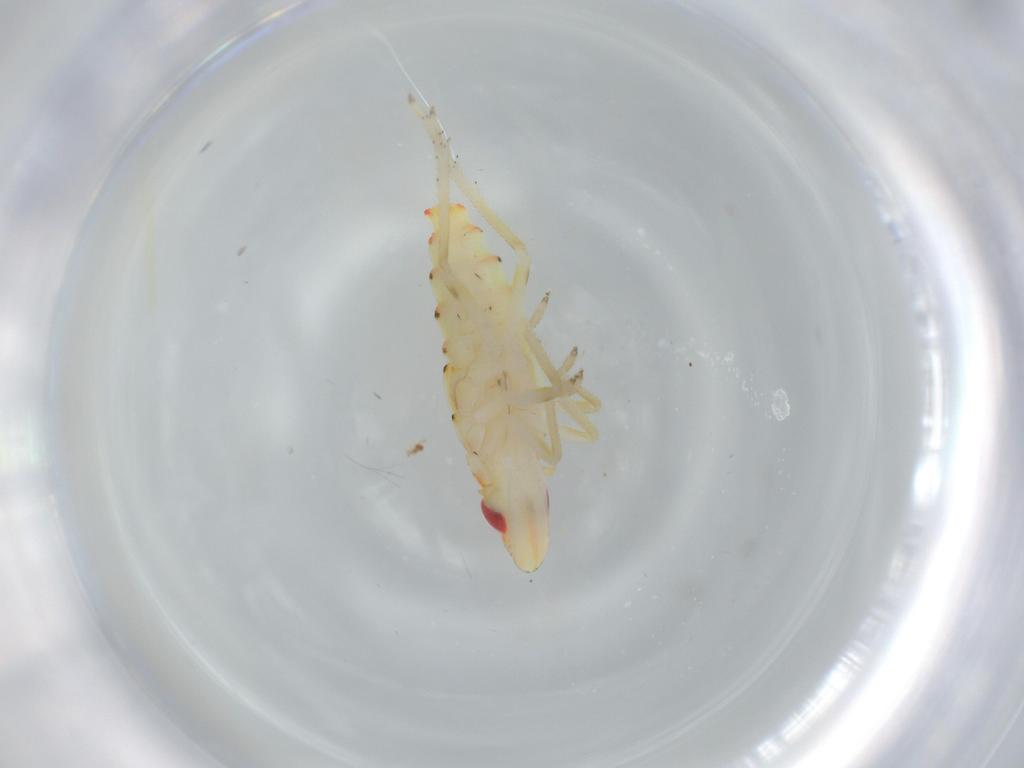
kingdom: Animalia
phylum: Arthropoda
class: Insecta
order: Hemiptera
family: Tropiduchidae
